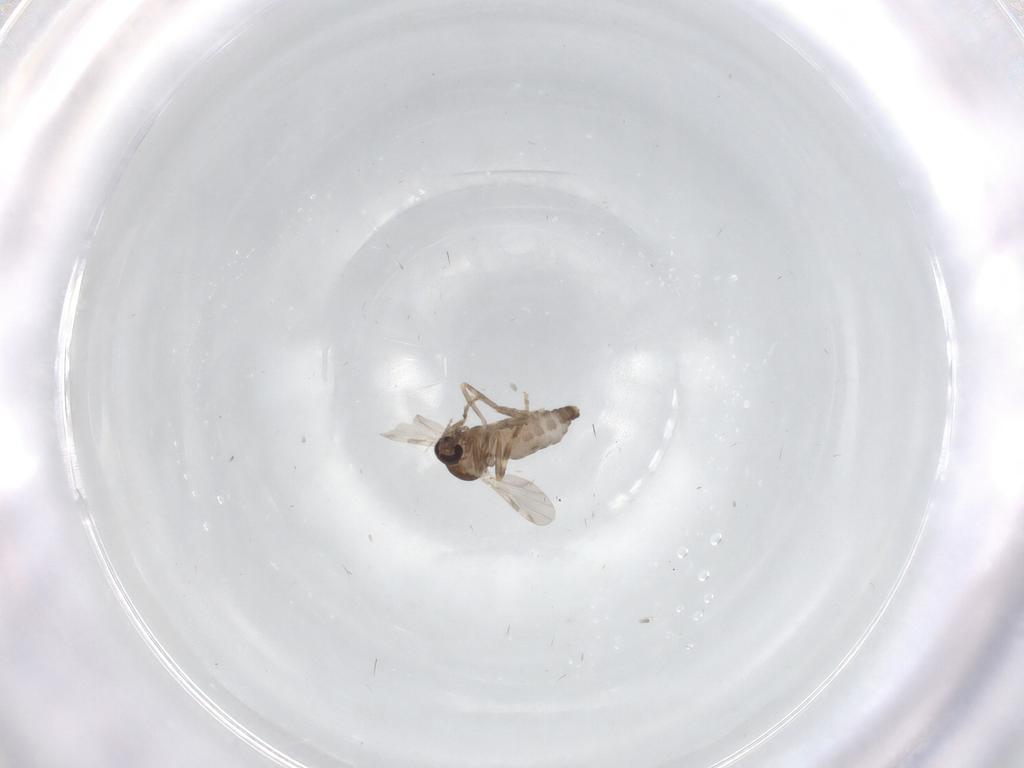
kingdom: Animalia
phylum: Arthropoda
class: Insecta
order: Diptera
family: Ceratopogonidae
